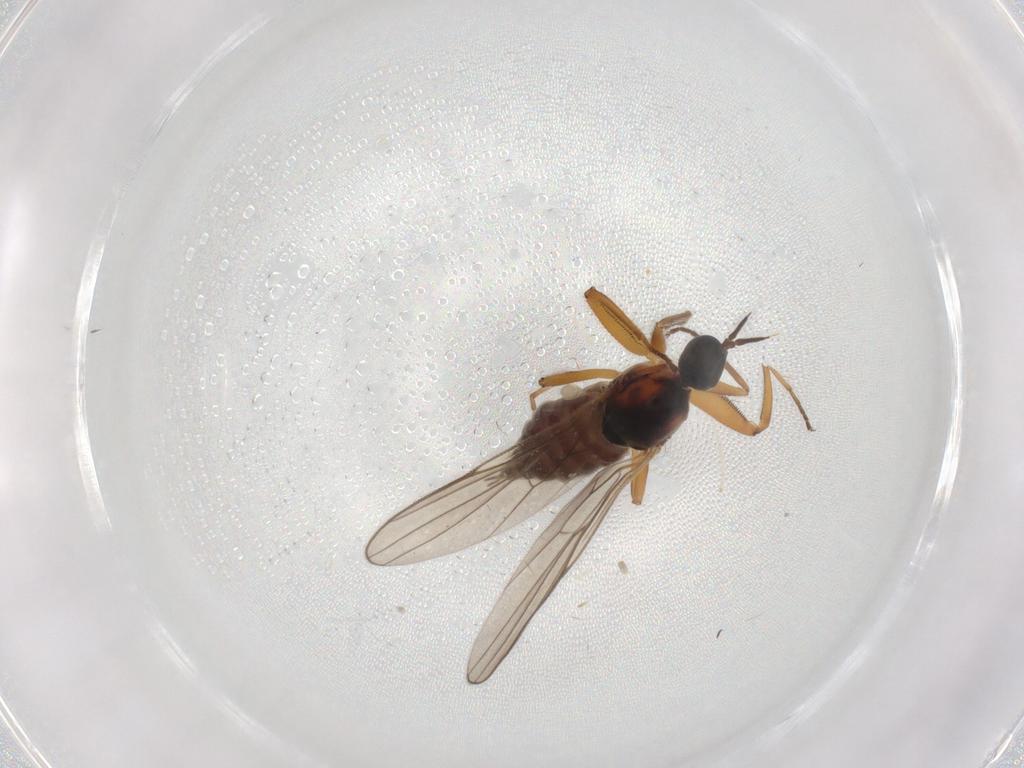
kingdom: Animalia
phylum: Arthropoda
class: Insecta
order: Diptera
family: Hybotidae
